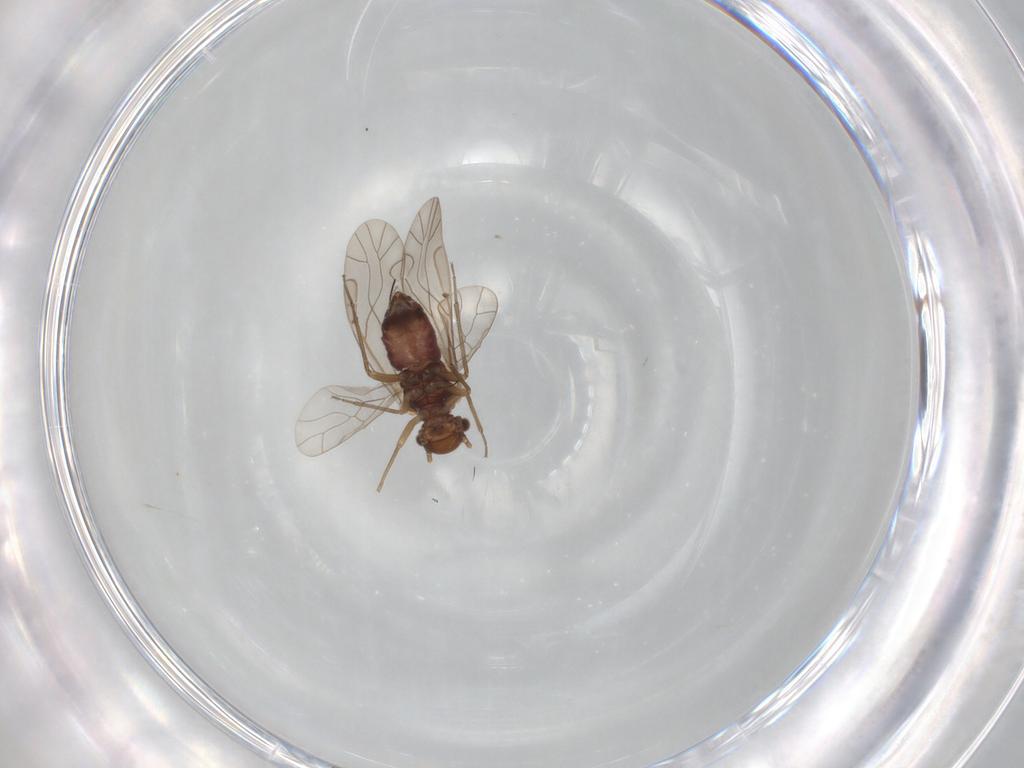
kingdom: Animalia
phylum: Arthropoda
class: Insecta
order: Psocodea
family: Lachesillidae
